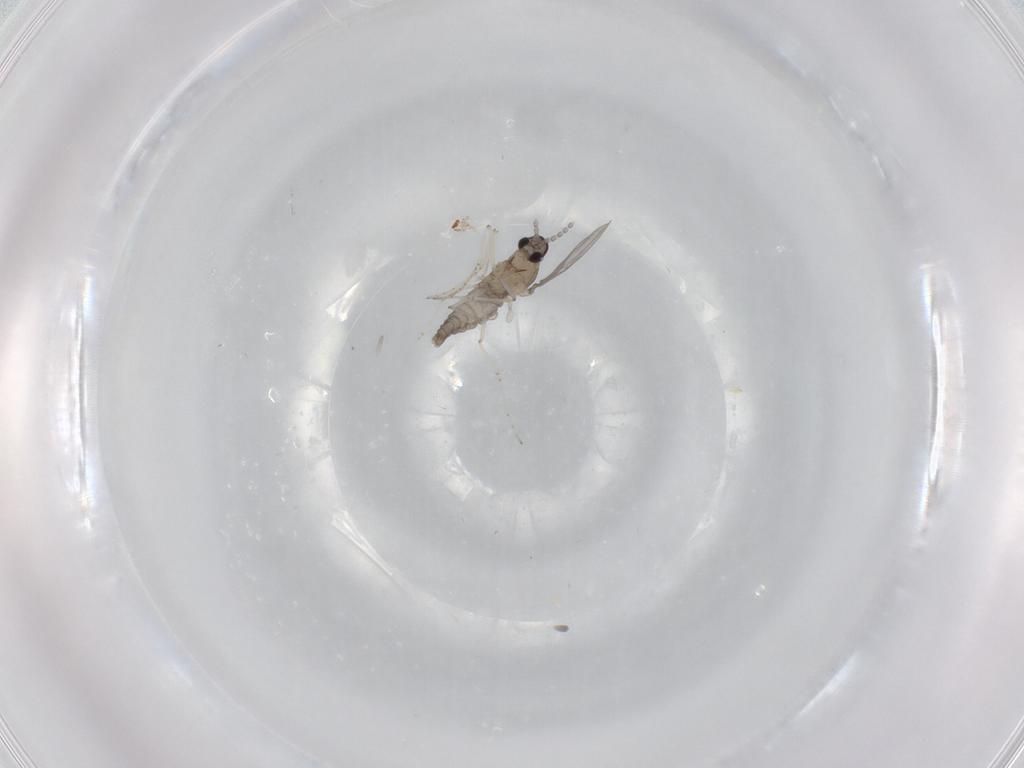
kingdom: Animalia
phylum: Arthropoda
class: Insecta
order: Diptera
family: Cecidomyiidae
